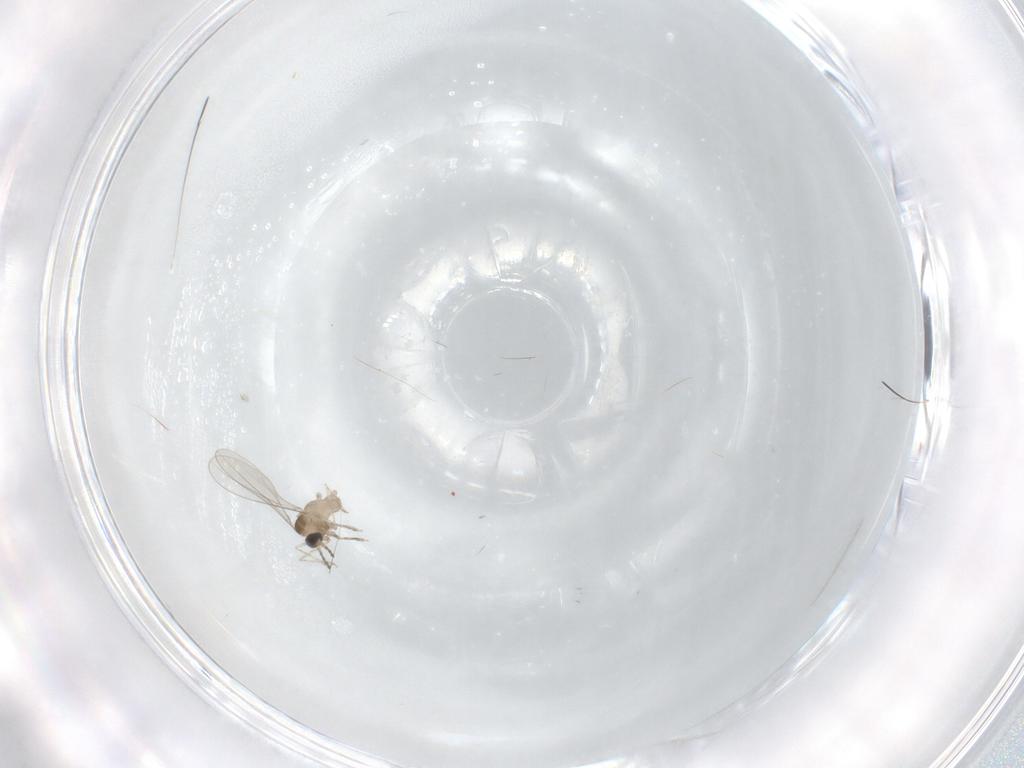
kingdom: Animalia
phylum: Arthropoda
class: Insecta
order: Diptera
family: Cecidomyiidae
